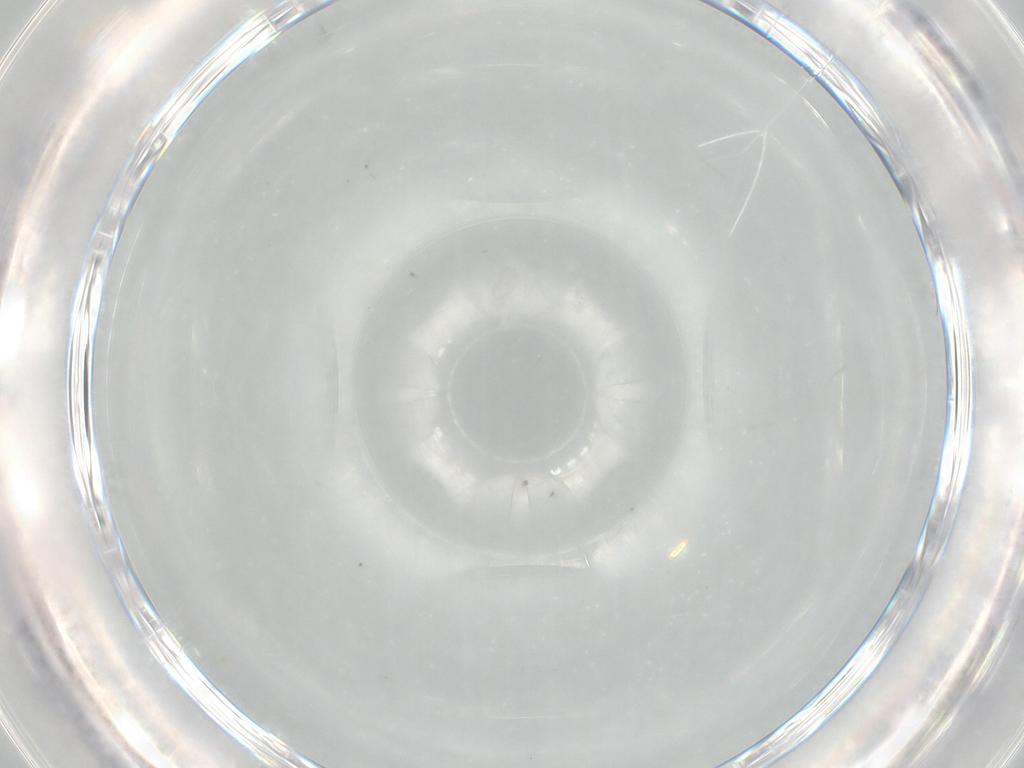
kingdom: Animalia
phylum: Arthropoda
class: Insecta
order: Hymenoptera
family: Trichogrammatidae
